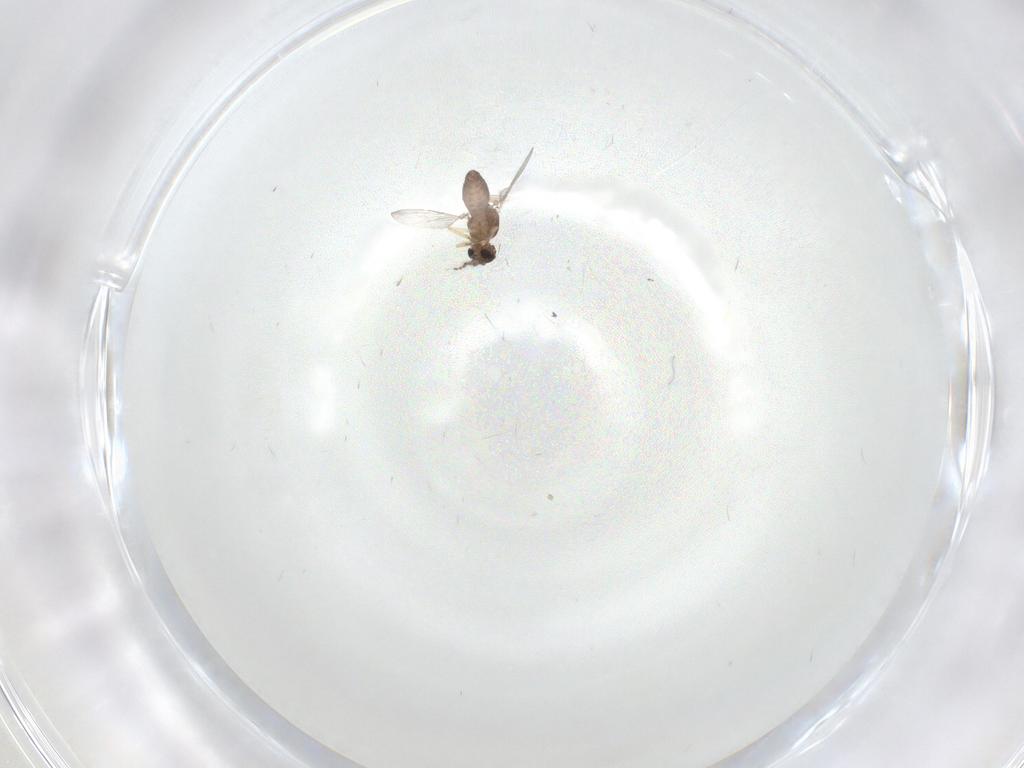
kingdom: Animalia
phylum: Arthropoda
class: Insecta
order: Diptera
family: Ceratopogonidae
